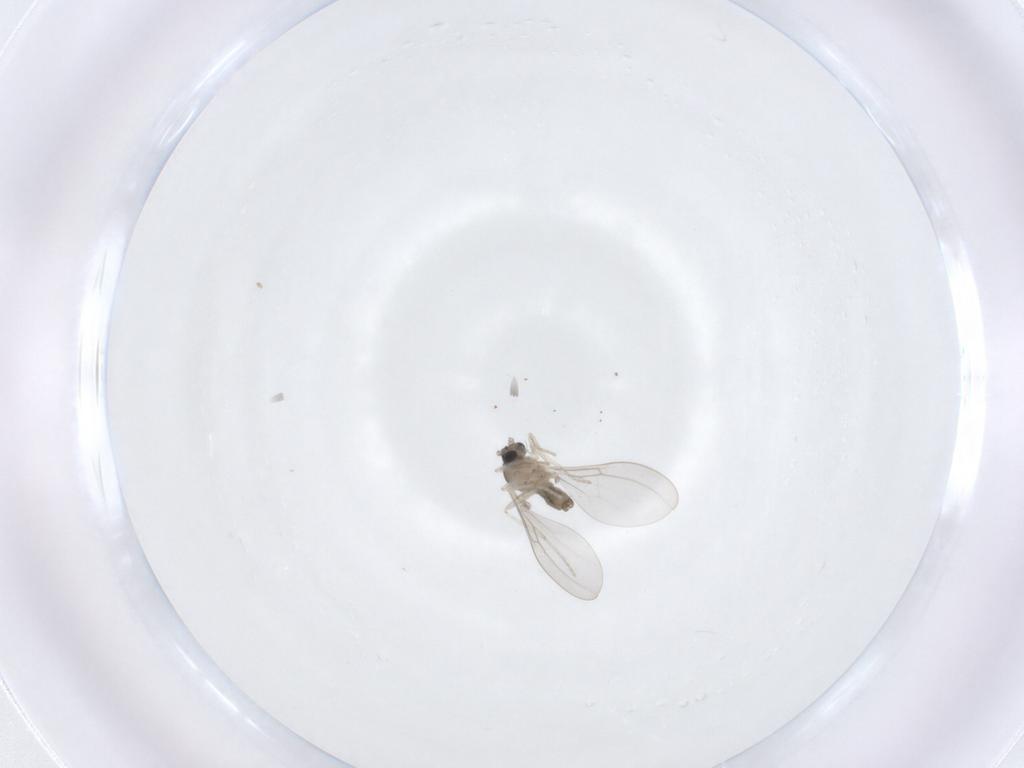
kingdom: Animalia
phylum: Arthropoda
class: Insecta
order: Diptera
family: Cecidomyiidae
